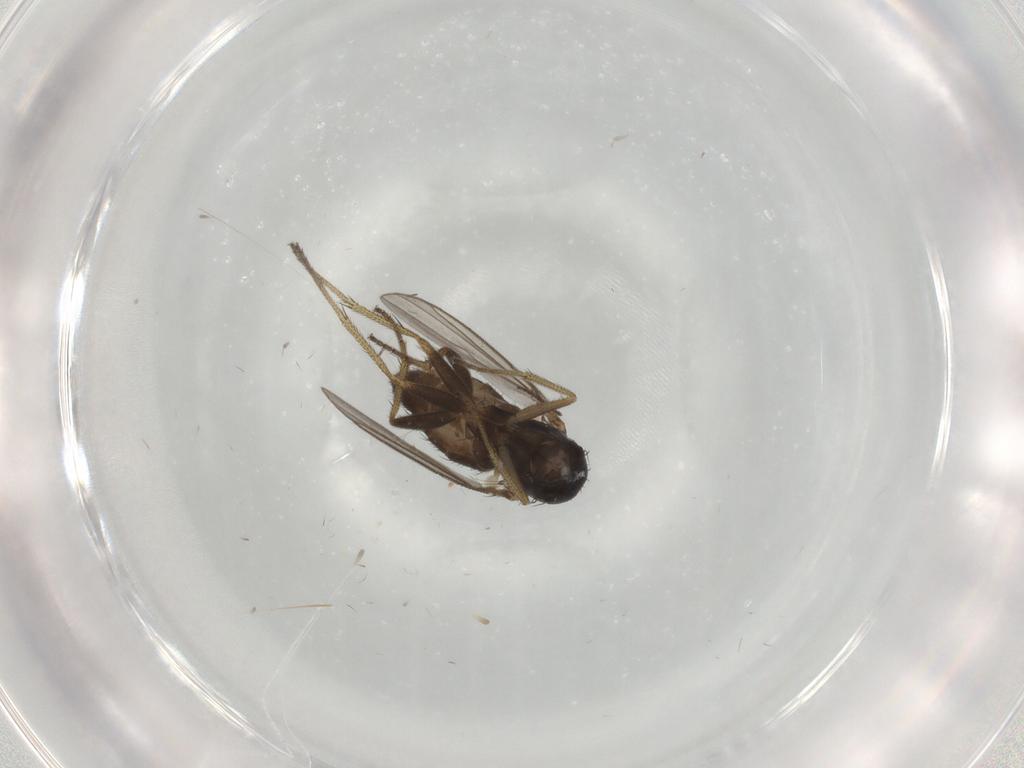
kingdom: Animalia
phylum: Arthropoda
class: Insecta
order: Diptera
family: Dolichopodidae
